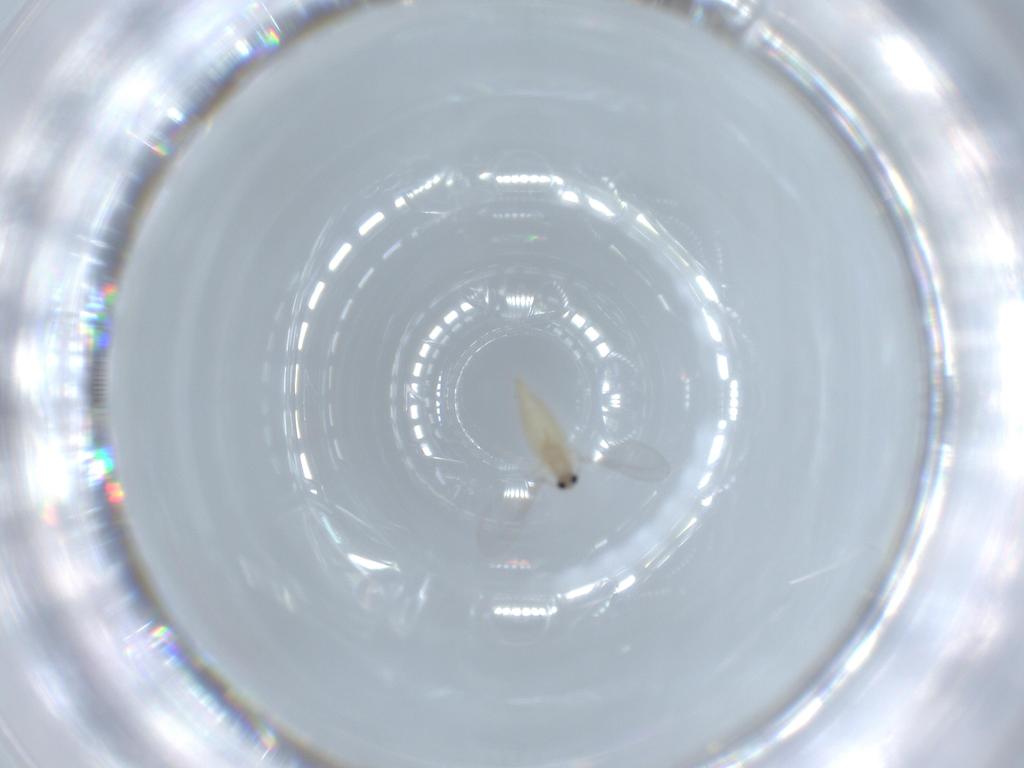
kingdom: Animalia
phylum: Arthropoda
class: Insecta
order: Diptera
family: Cecidomyiidae
